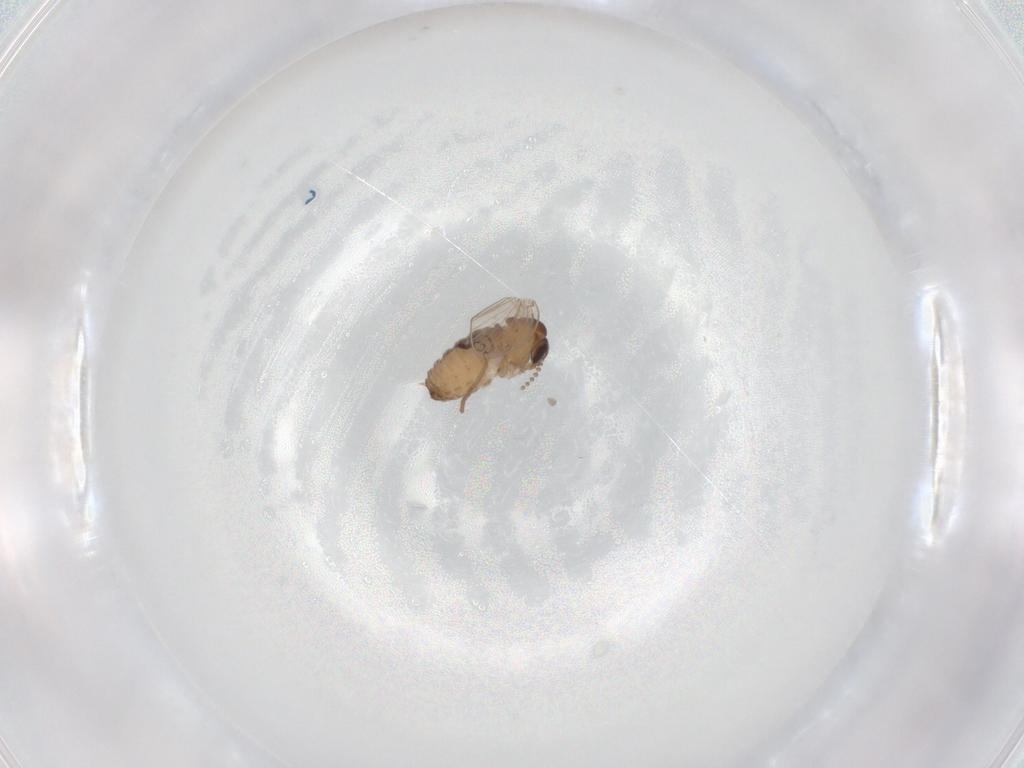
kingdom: Animalia
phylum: Arthropoda
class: Insecta
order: Diptera
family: Psychodidae
